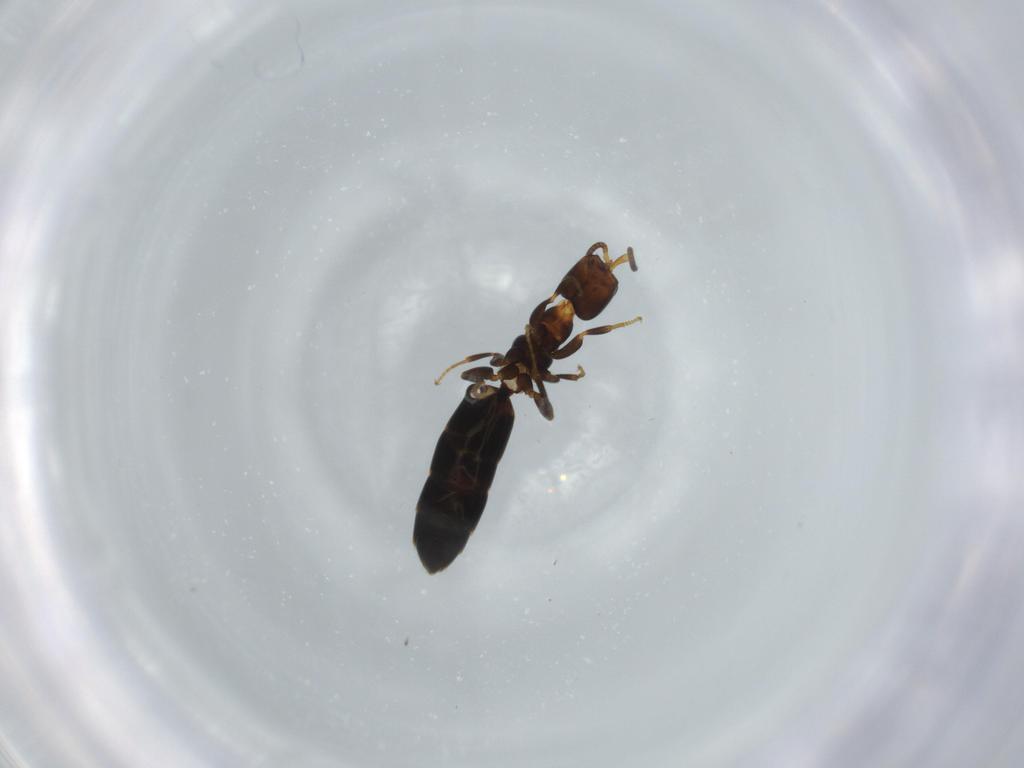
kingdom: Animalia
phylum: Arthropoda
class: Insecta
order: Hymenoptera
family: Bethylidae
